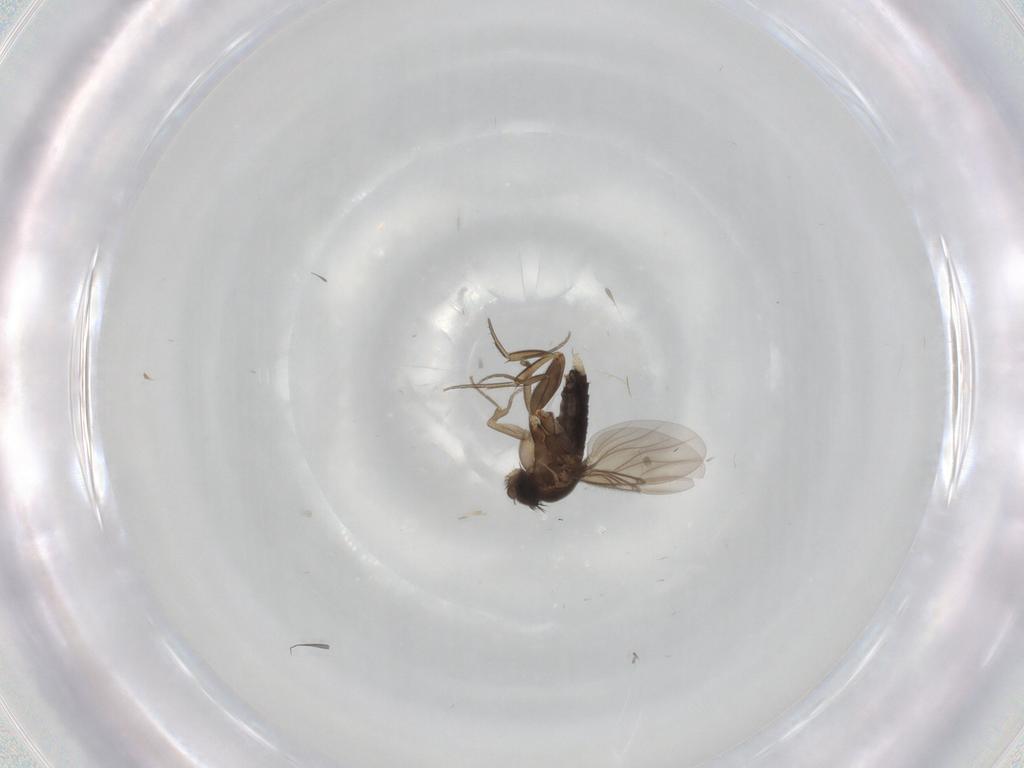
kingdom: Animalia
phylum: Arthropoda
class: Insecta
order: Diptera
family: Phoridae
